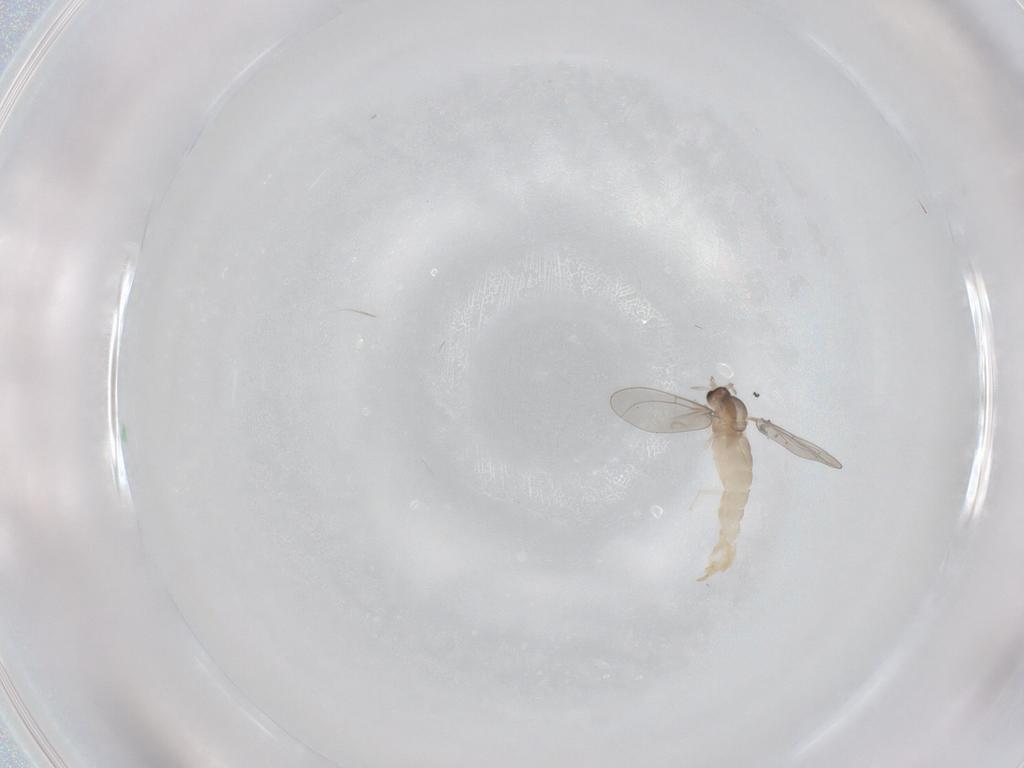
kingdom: Animalia
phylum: Arthropoda
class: Insecta
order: Diptera
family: Cecidomyiidae
